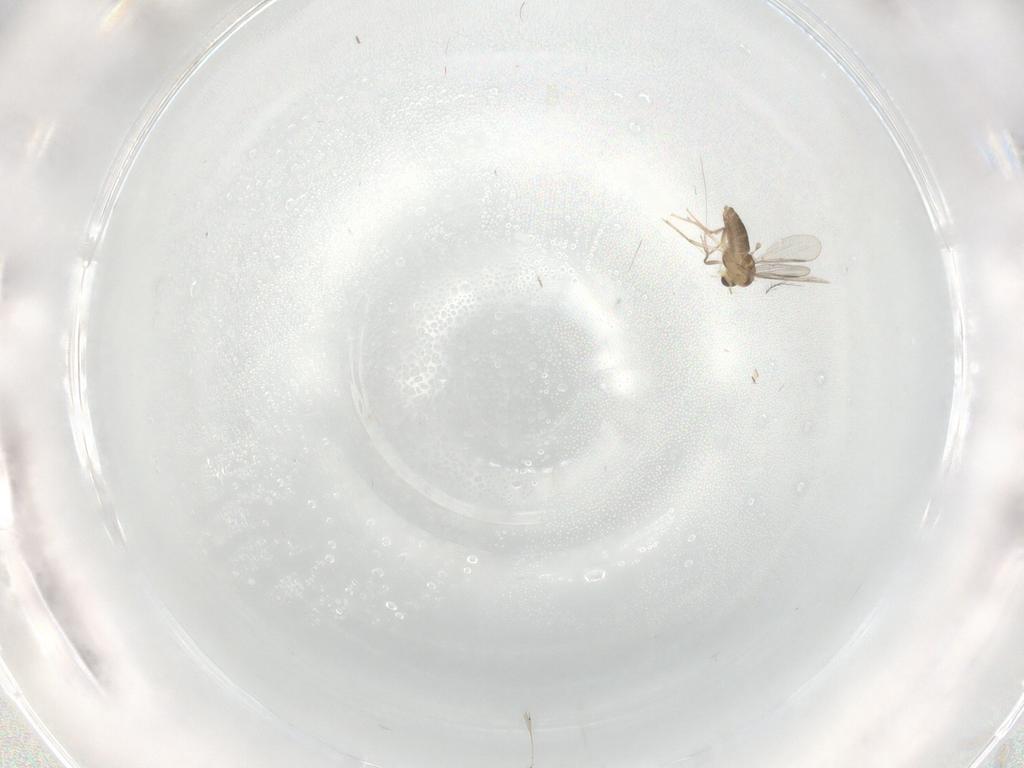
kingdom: Animalia
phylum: Arthropoda
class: Insecta
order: Diptera
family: Chironomidae
